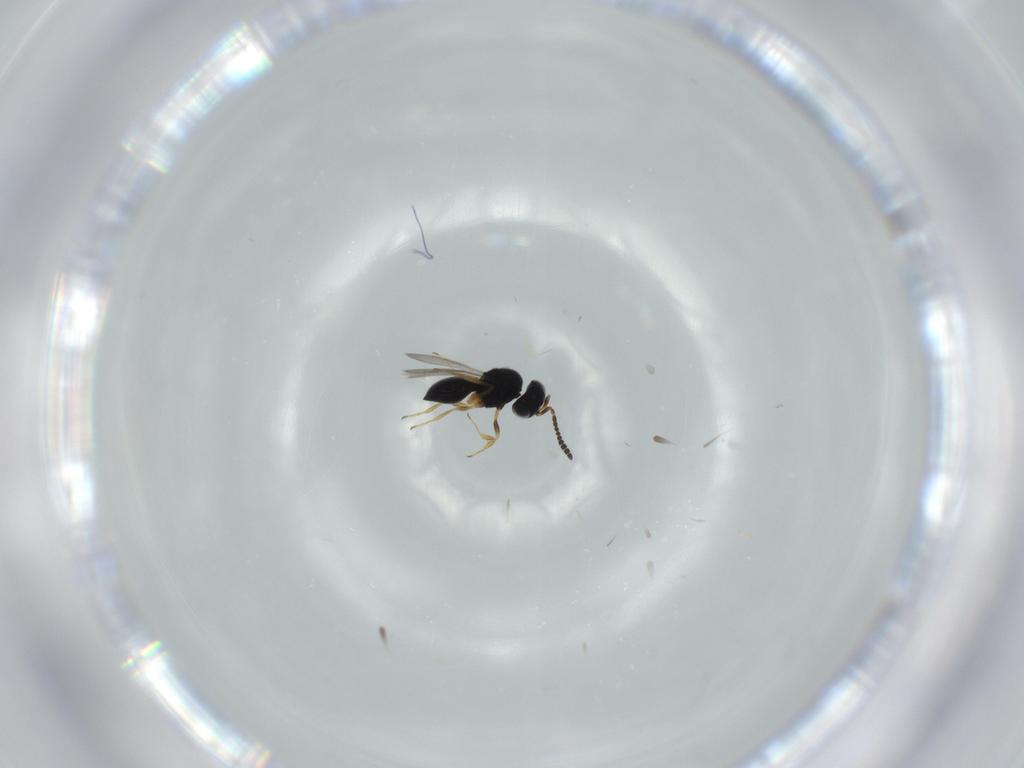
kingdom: Animalia
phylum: Arthropoda
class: Insecta
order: Hymenoptera
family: Scelionidae
